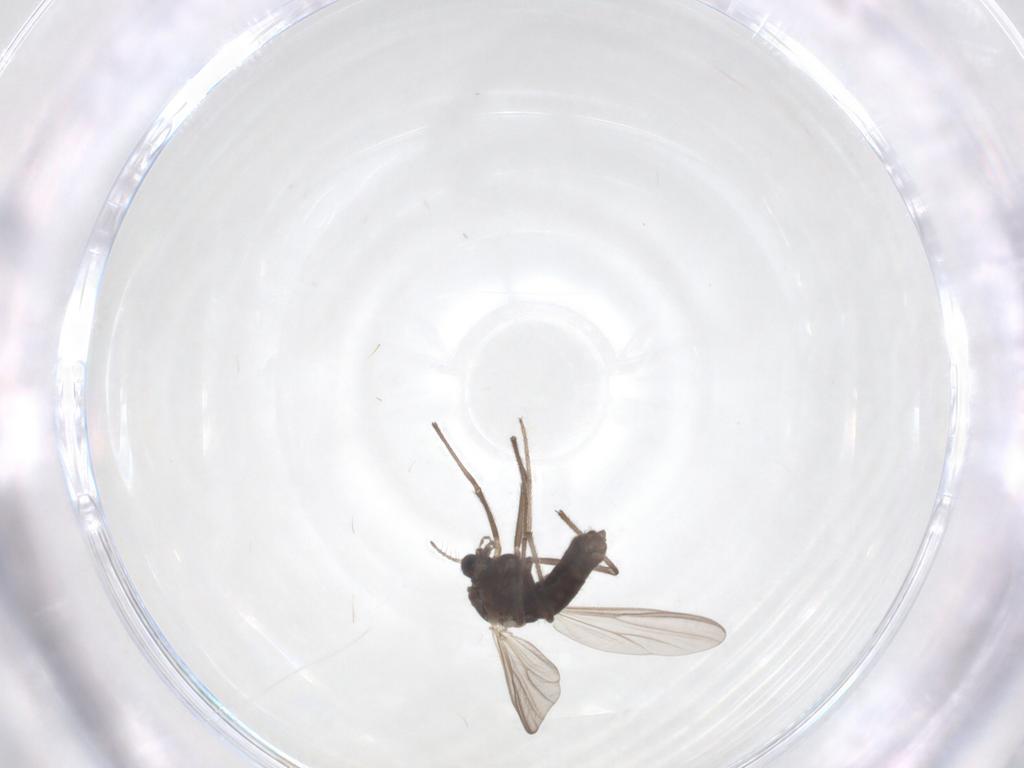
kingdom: Animalia
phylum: Arthropoda
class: Insecta
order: Diptera
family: Chironomidae
